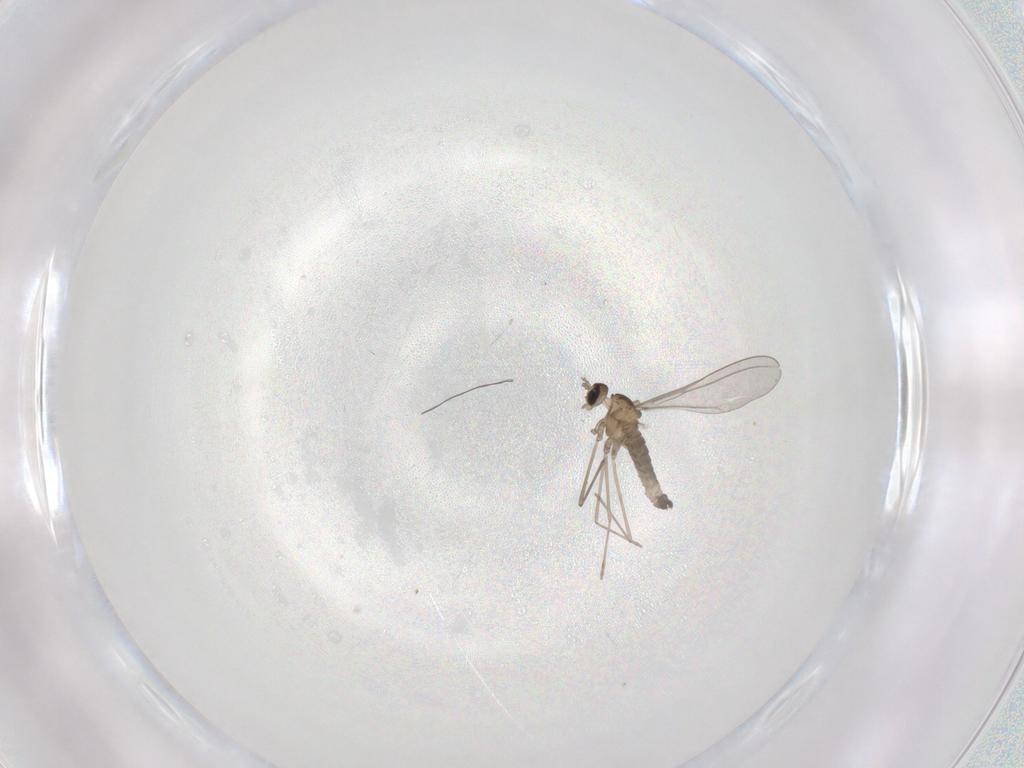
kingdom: Animalia
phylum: Arthropoda
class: Insecta
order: Diptera
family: Cecidomyiidae
